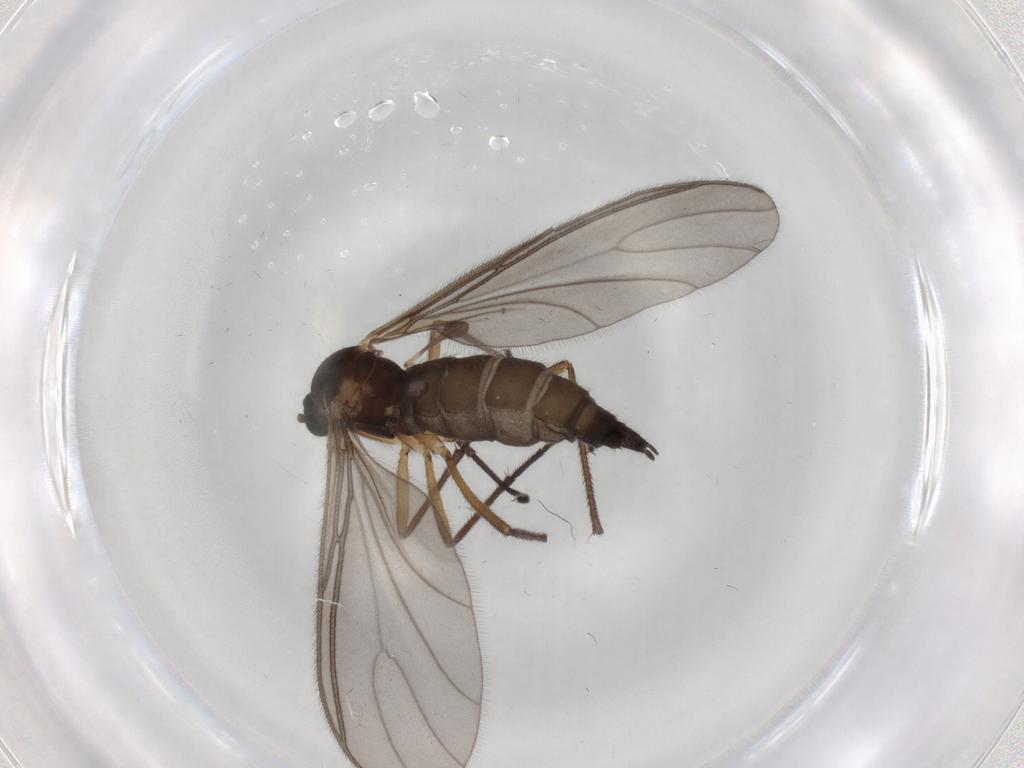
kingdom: Animalia
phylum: Arthropoda
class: Insecta
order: Diptera
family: Sciaridae
